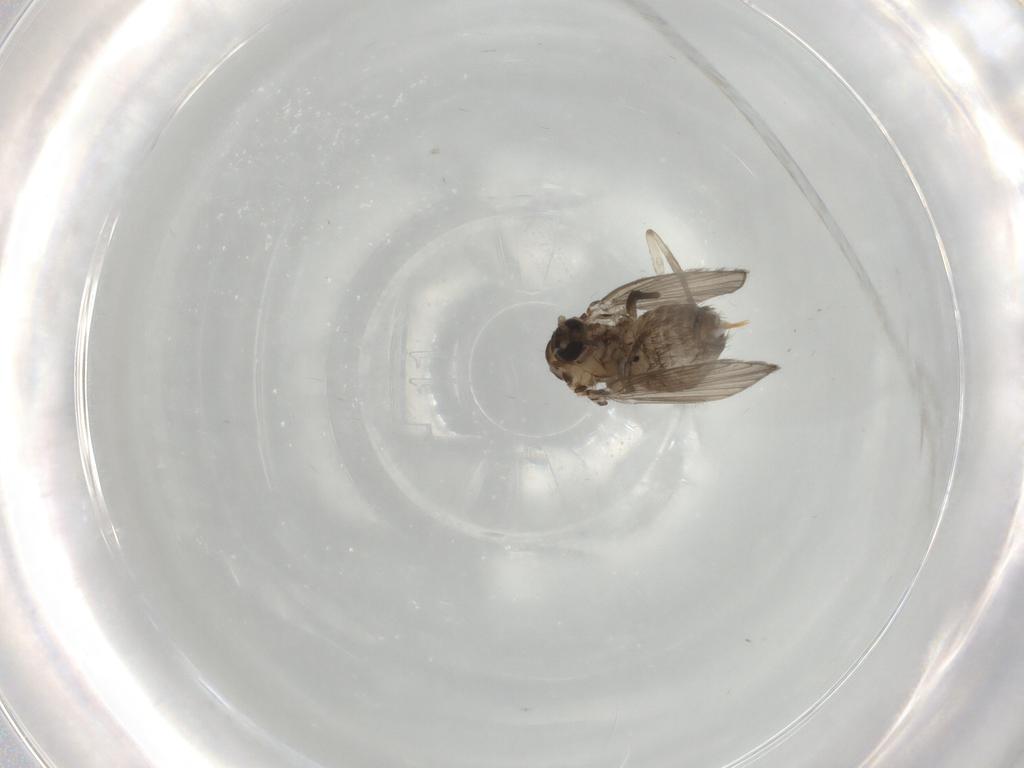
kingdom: Animalia
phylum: Arthropoda
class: Insecta
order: Diptera
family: Psychodidae
